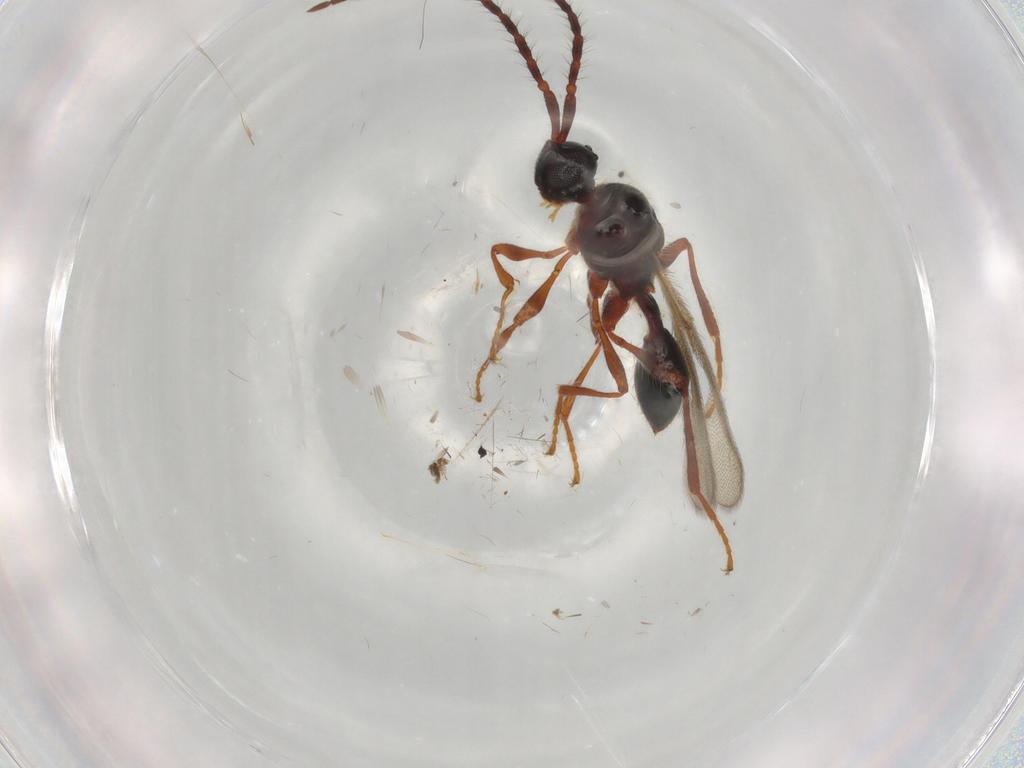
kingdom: Animalia
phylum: Arthropoda
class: Insecta
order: Hymenoptera
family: Diapriidae
